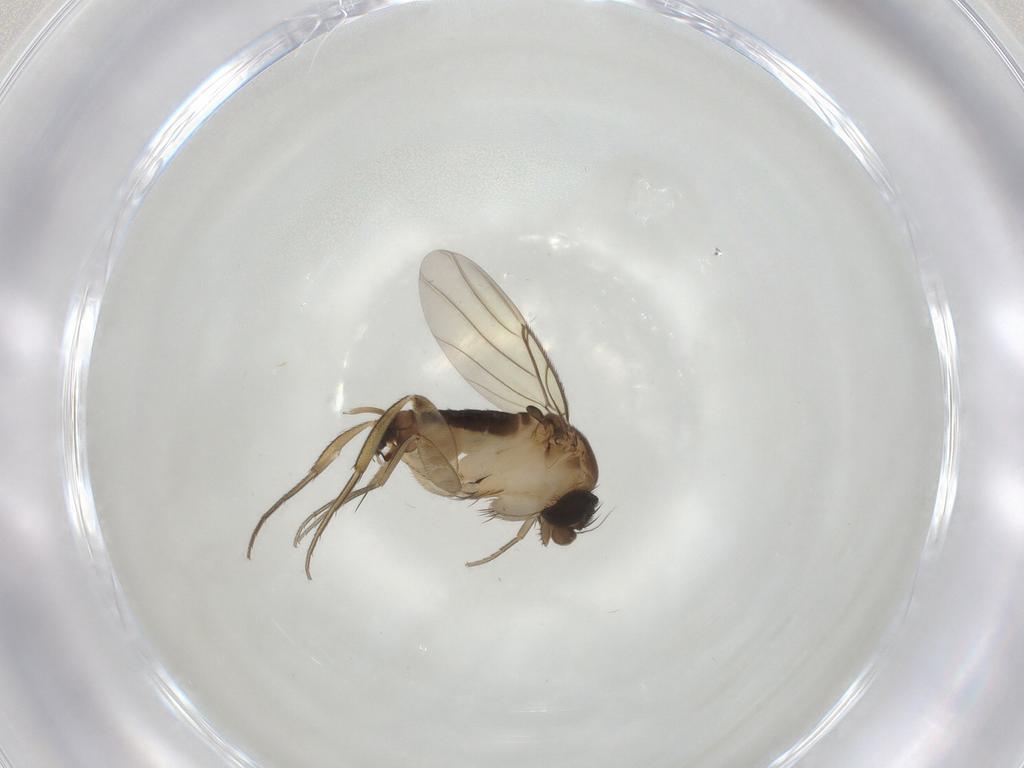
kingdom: Animalia
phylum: Arthropoda
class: Insecta
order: Diptera
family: Phoridae
